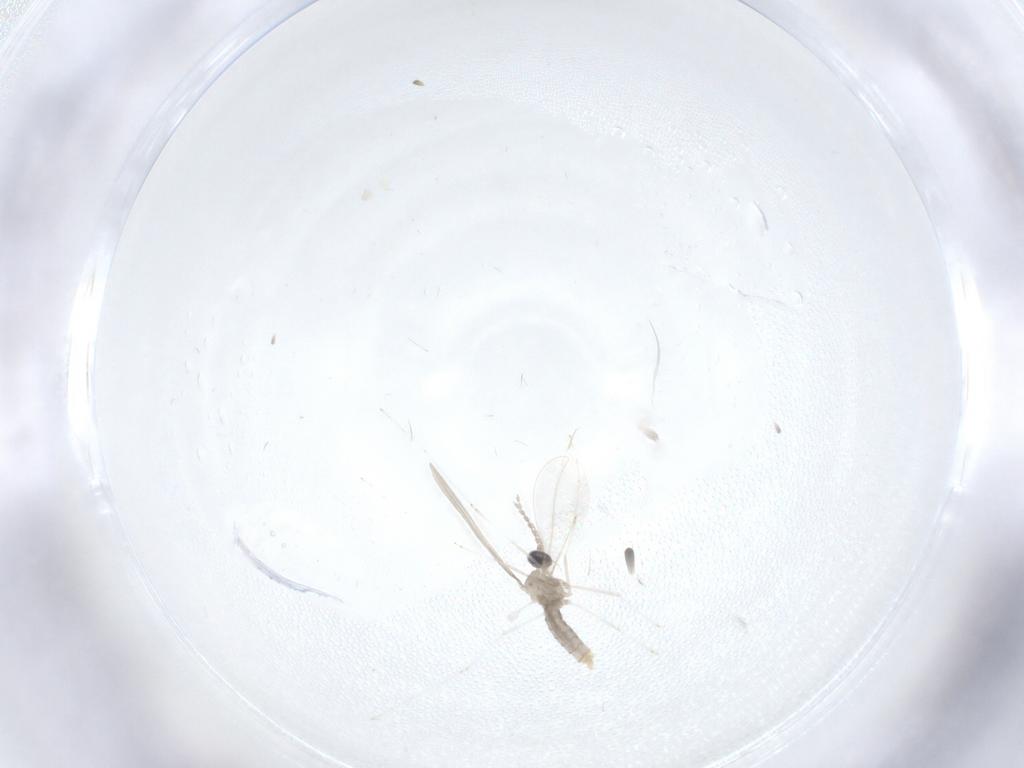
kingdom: Animalia
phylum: Arthropoda
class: Insecta
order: Diptera
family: Cecidomyiidae
